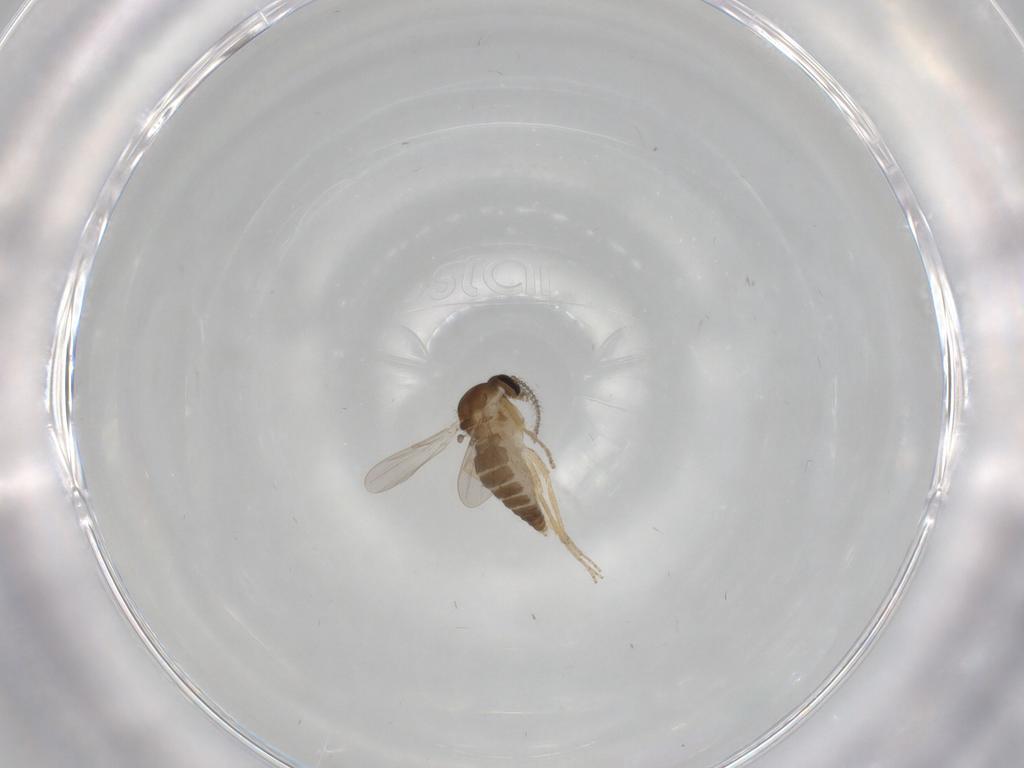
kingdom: Animalia
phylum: Arthropoda
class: Insecta
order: Diptera
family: Ceratopogonidae
